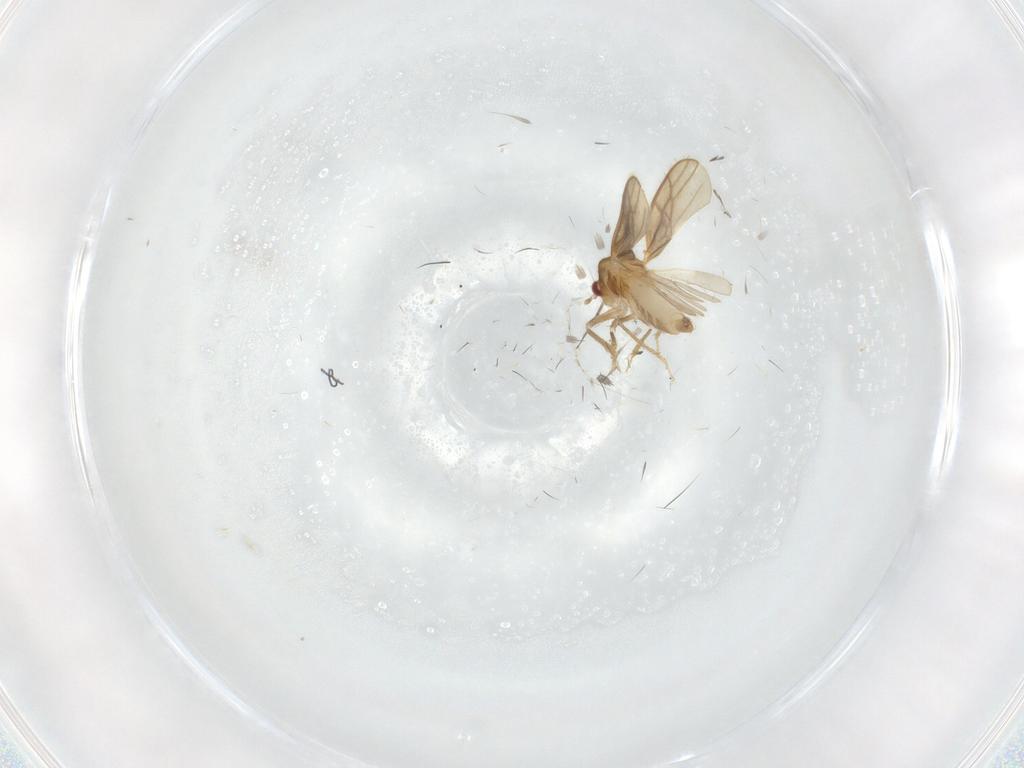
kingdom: Animalia
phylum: Arthropoda
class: Insecta
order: Diptera
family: Chironomidae
